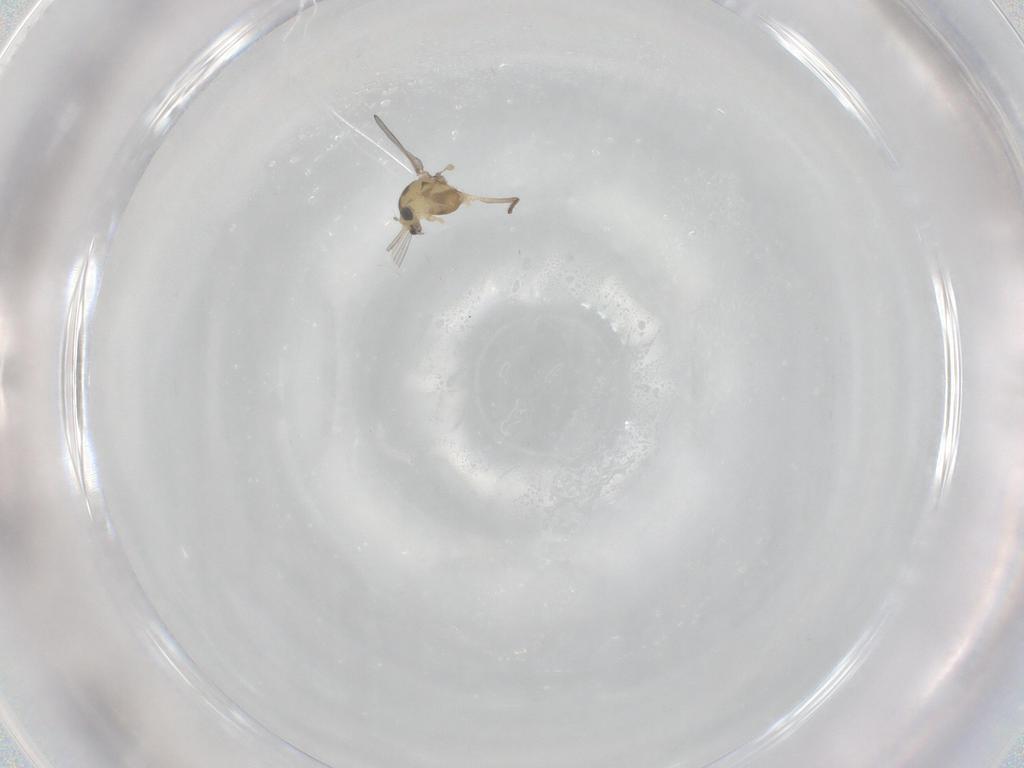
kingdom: Animalia
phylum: Arthropoda
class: Insecta
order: Diptera
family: Chironomidae
